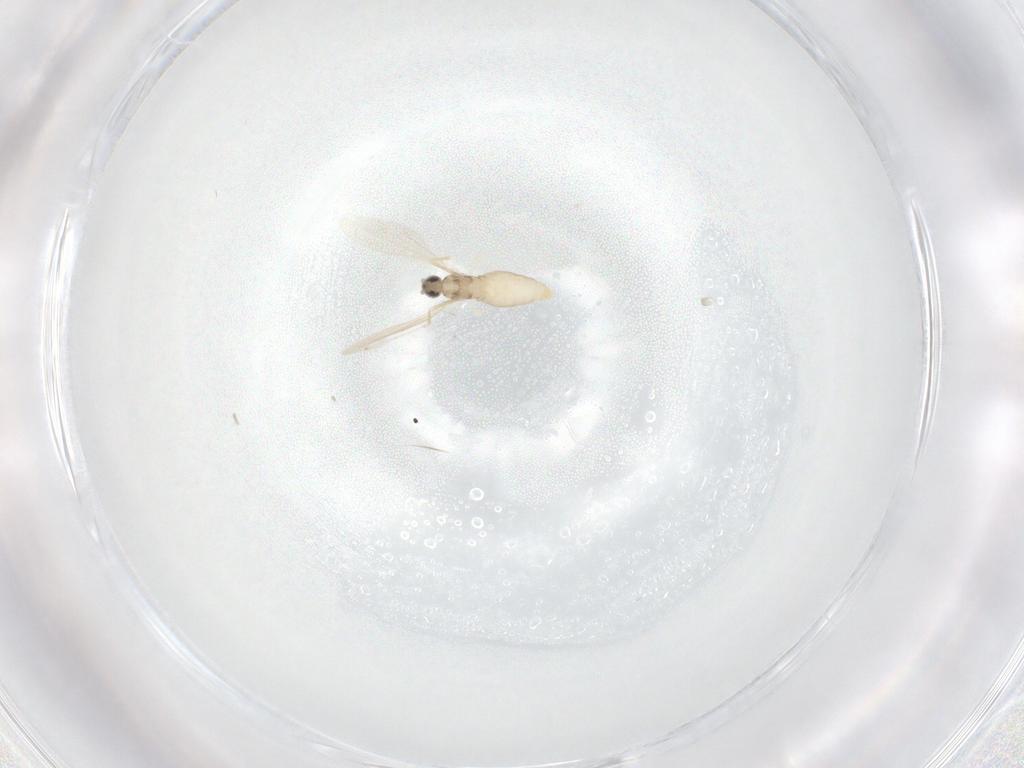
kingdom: Animalia
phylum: Arthropoda
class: Insecta
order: Diptera
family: Cecidomyiidae
